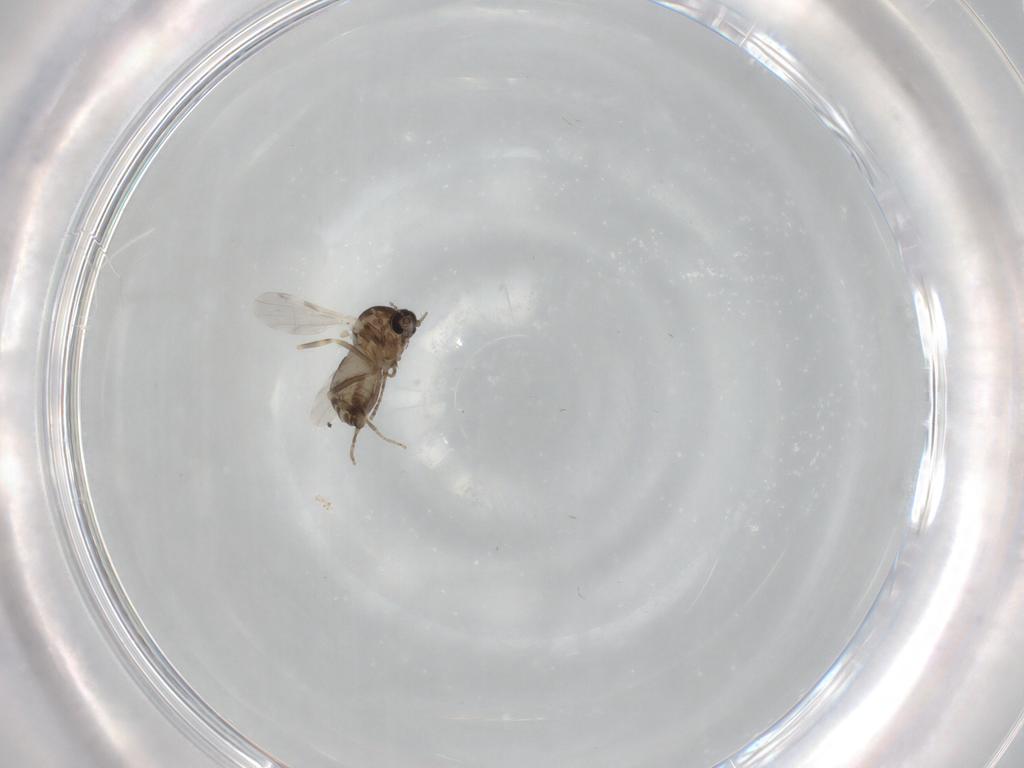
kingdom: Animalia
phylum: Arthropoda
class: Insecta
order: Diptera
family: Ceratopogonidae
